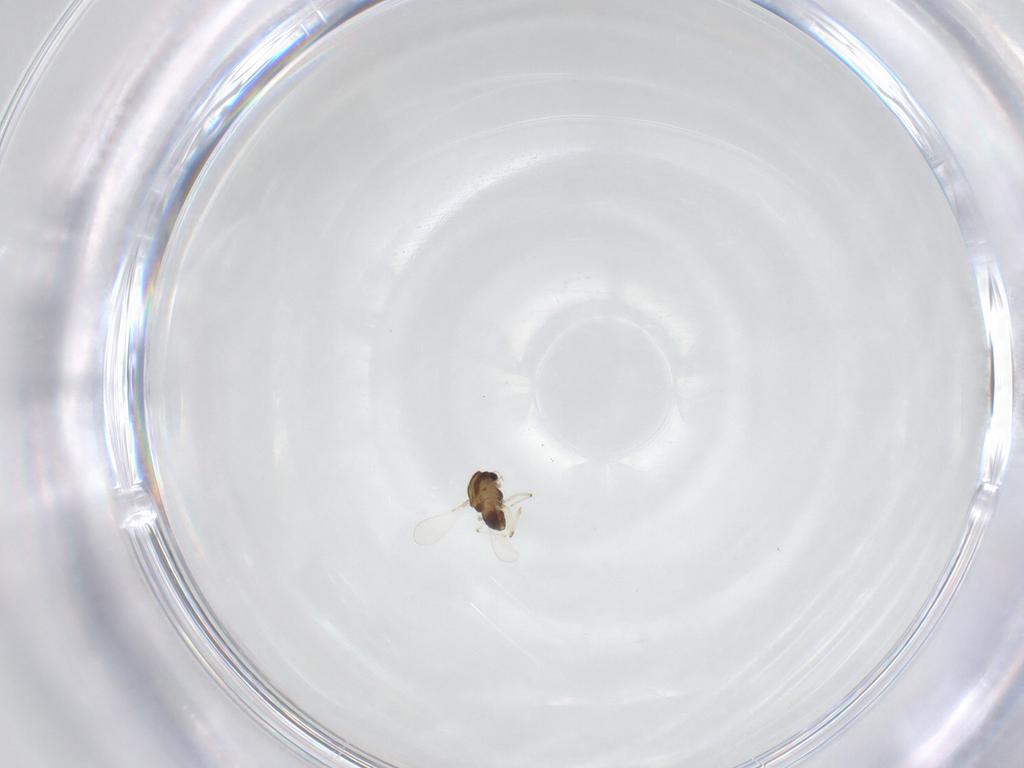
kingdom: Animalia
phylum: Arthropoda
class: Insecta
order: Diptera
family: Chironomidae
